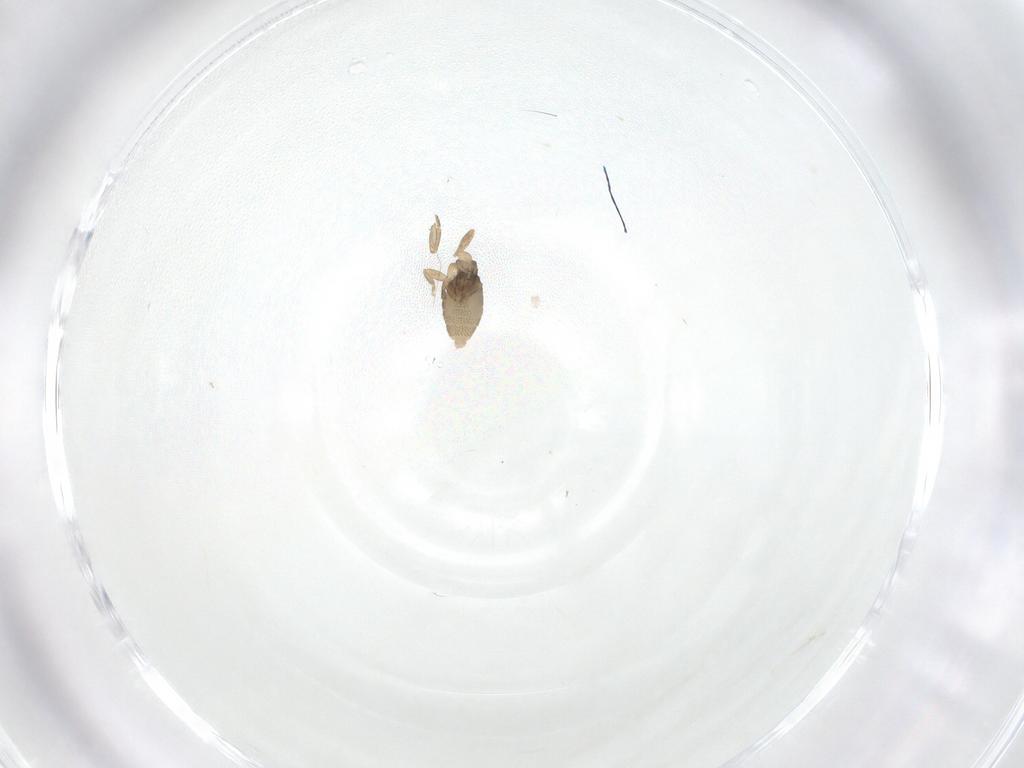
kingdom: Animalia
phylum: Arthropoda
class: Insecta
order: Diptera
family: Phoridae
